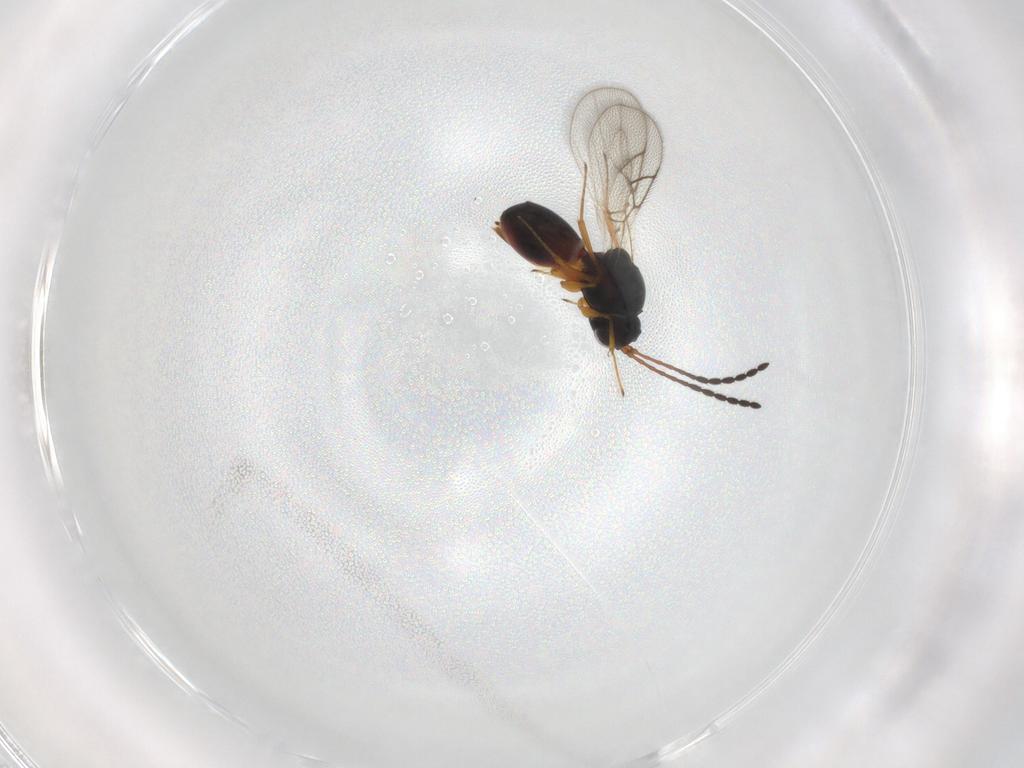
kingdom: Animalia
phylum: Arthropoda
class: Insecta
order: Hymenoptera
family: Figitidae
